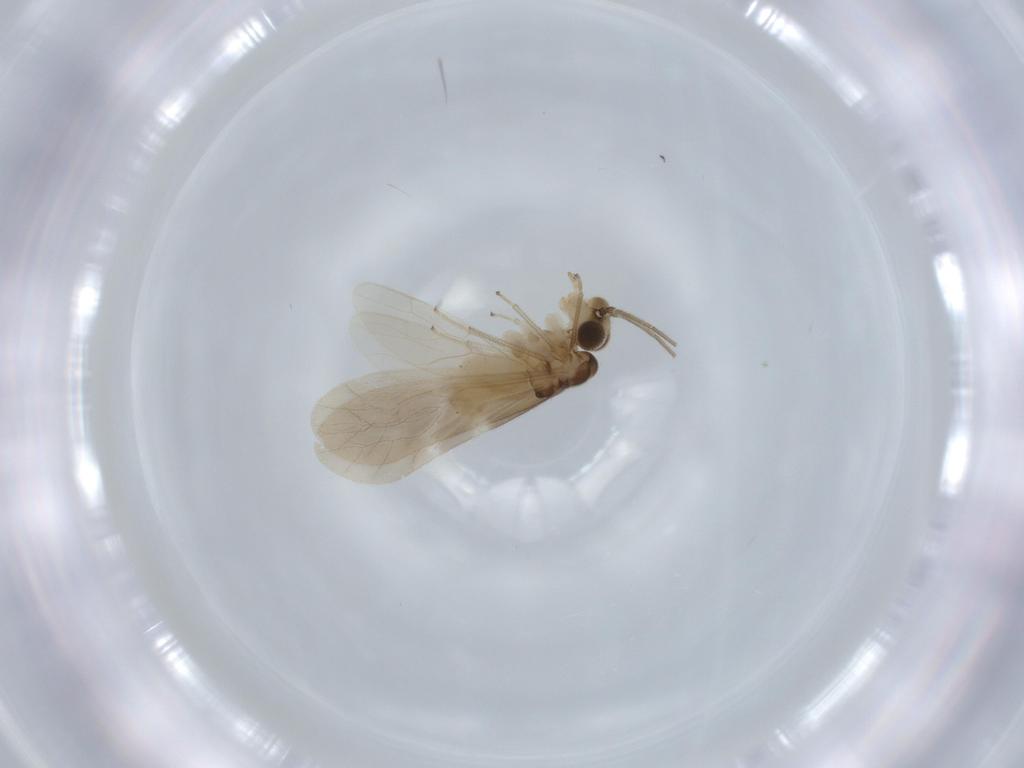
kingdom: Animalia
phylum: Arthropoda
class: Insecta
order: Psocodea
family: Caeciliusidae
